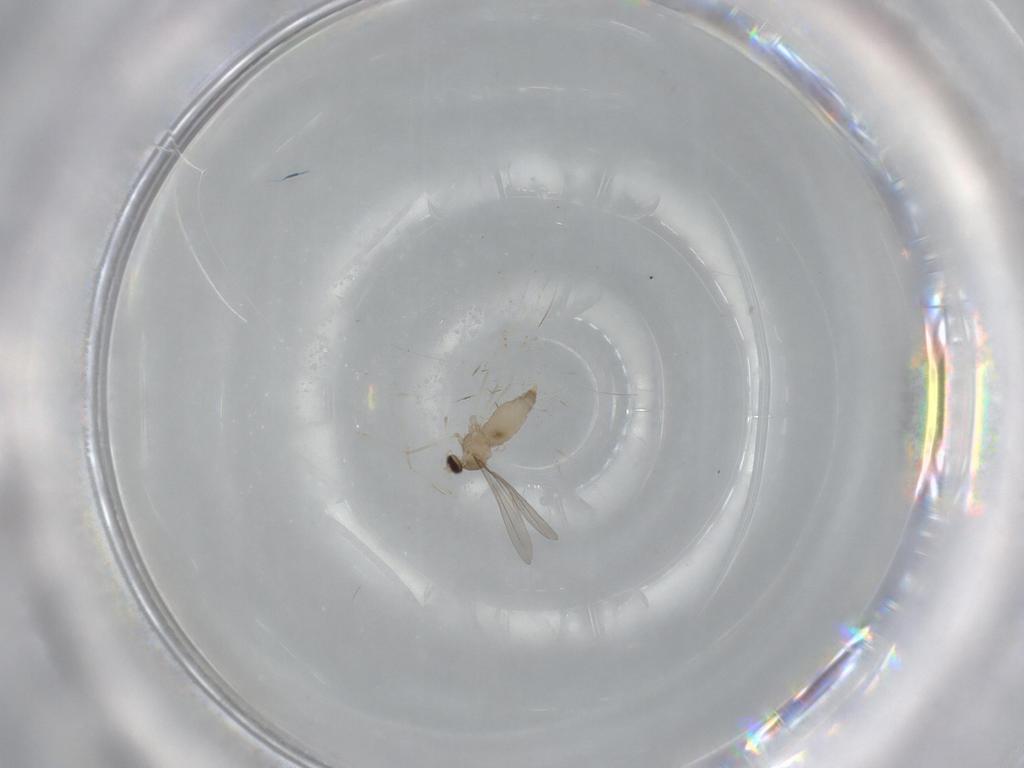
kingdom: Animalia
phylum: Arthropoda
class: Insecta
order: Diptera
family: Cecidomyiidae
